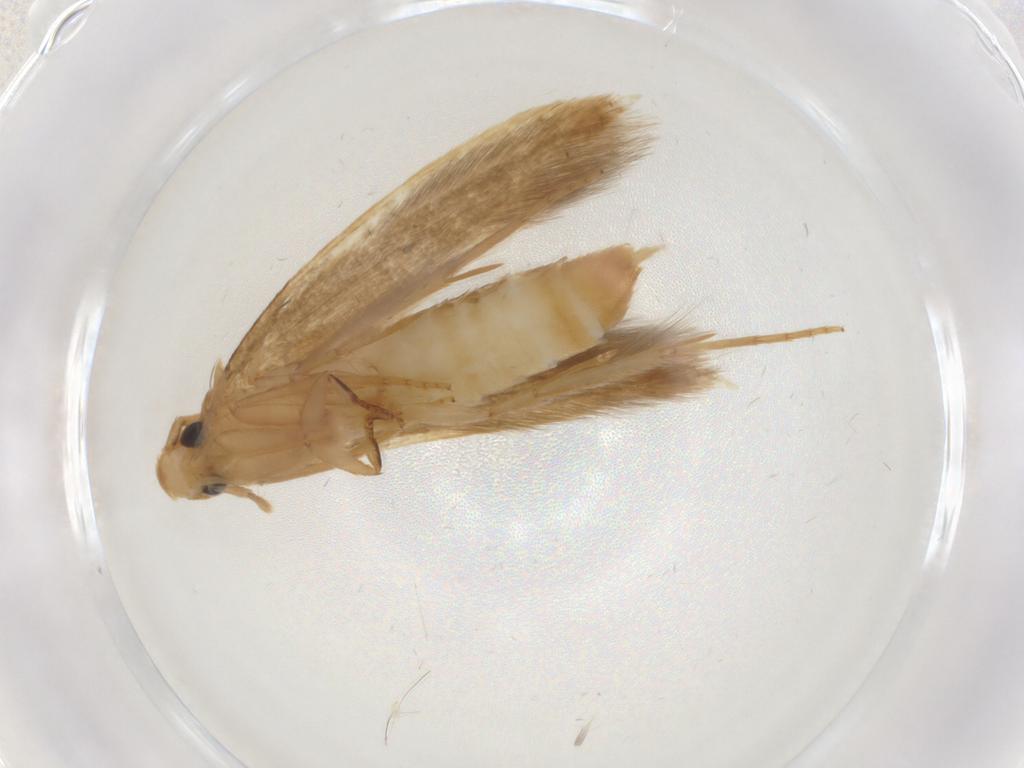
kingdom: Animalia
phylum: Arthropoda
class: Insecta
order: Lepidoptera
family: Tineidae
